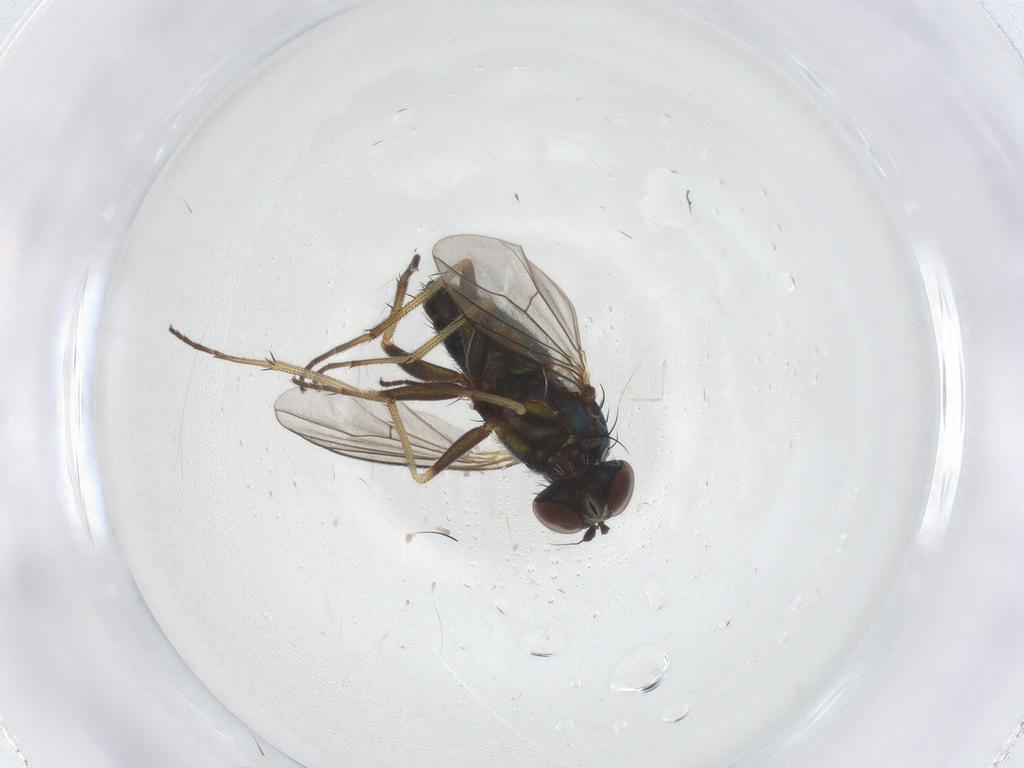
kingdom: Animalia
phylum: Arthropoda
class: Insecta
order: Diptera
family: Dolichopodidae
